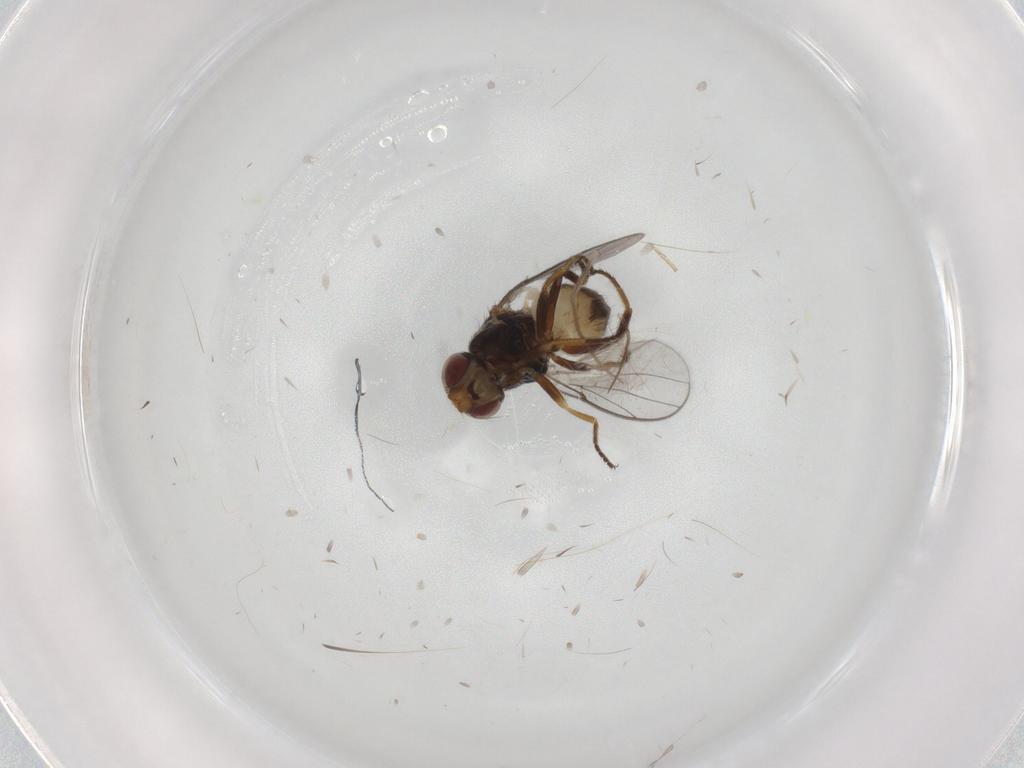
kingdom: Animalia
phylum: Arthropoda
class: Insecta
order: Diptera
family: Chloropidae
